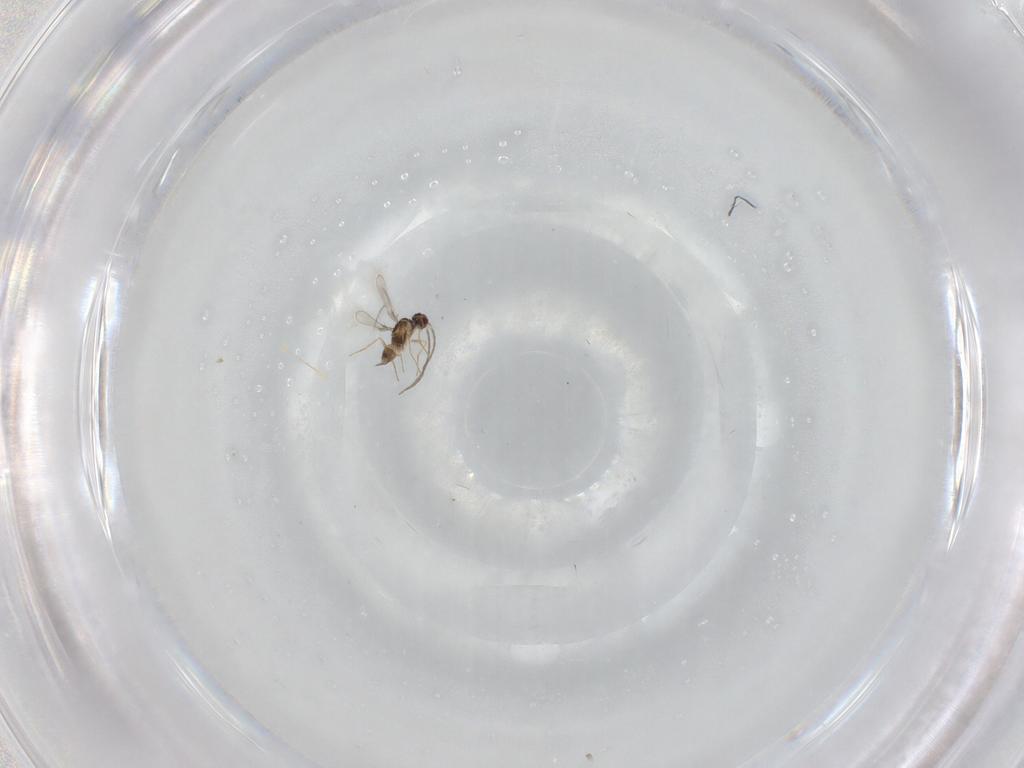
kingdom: Animalia
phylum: Arthropoda
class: Insecta
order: Hymenoptera
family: Mymaridae
